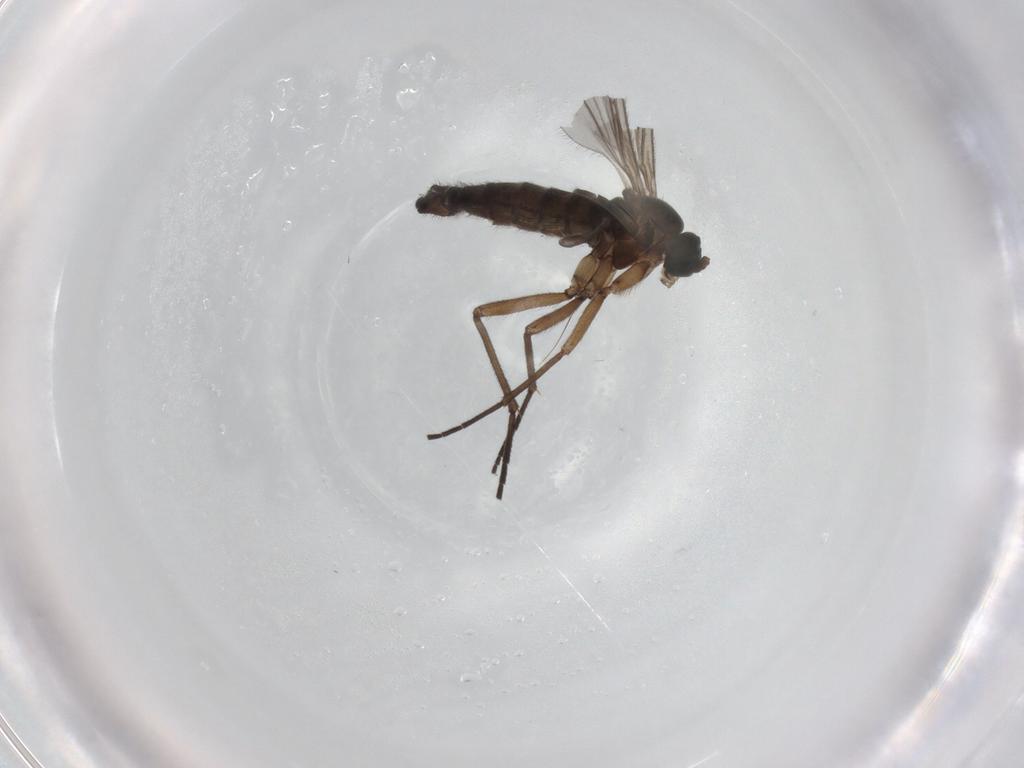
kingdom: Animalia
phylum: Arthropoda
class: Insecta
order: Diptera
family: Sciaridae
